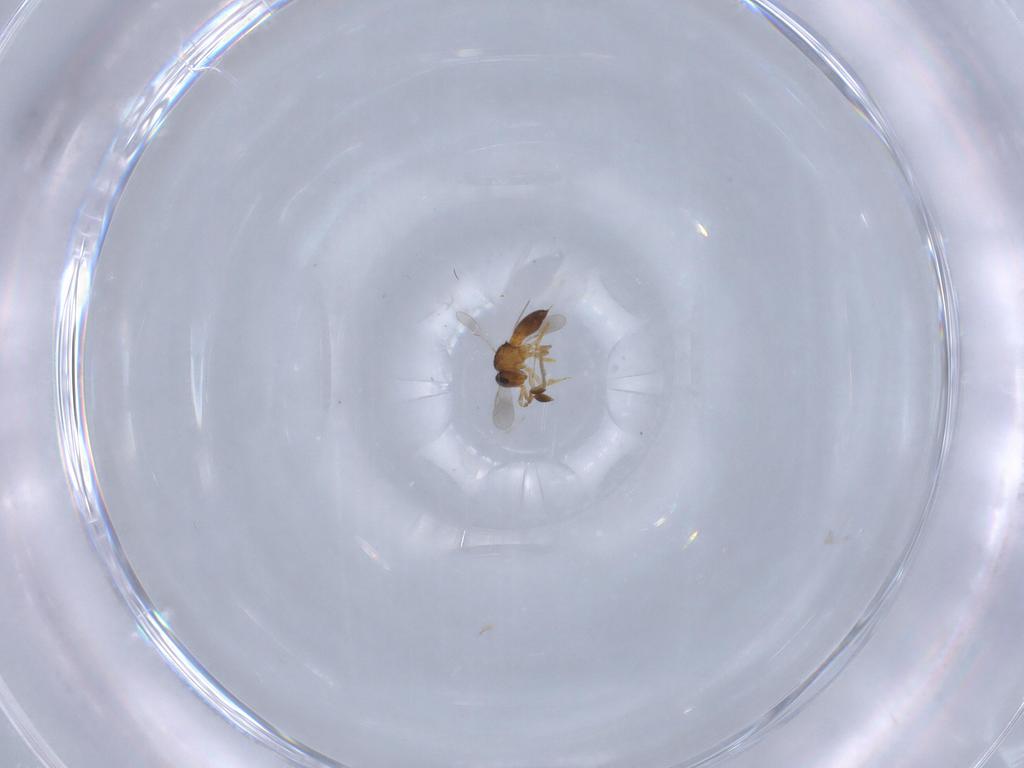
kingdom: Animalia
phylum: Arthropoda
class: Insecta
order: Hymenoptera
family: Scelionidae
